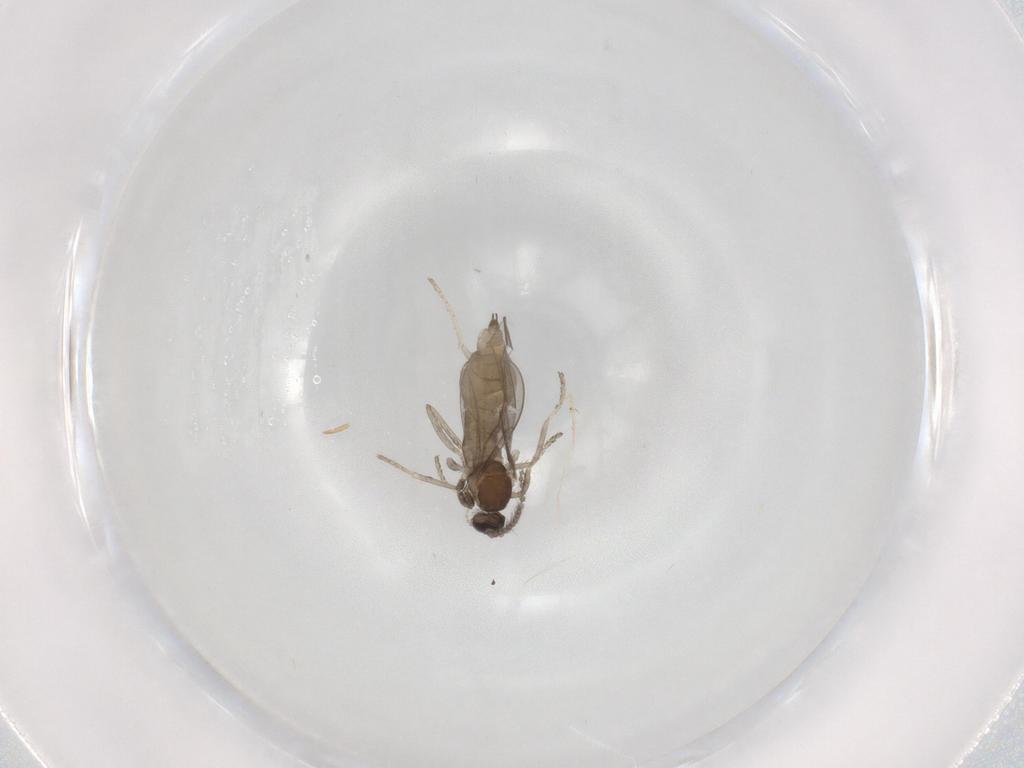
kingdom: Animalia
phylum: Arthropoda
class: Insecta
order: Diptera
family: Cecidomyiidae
